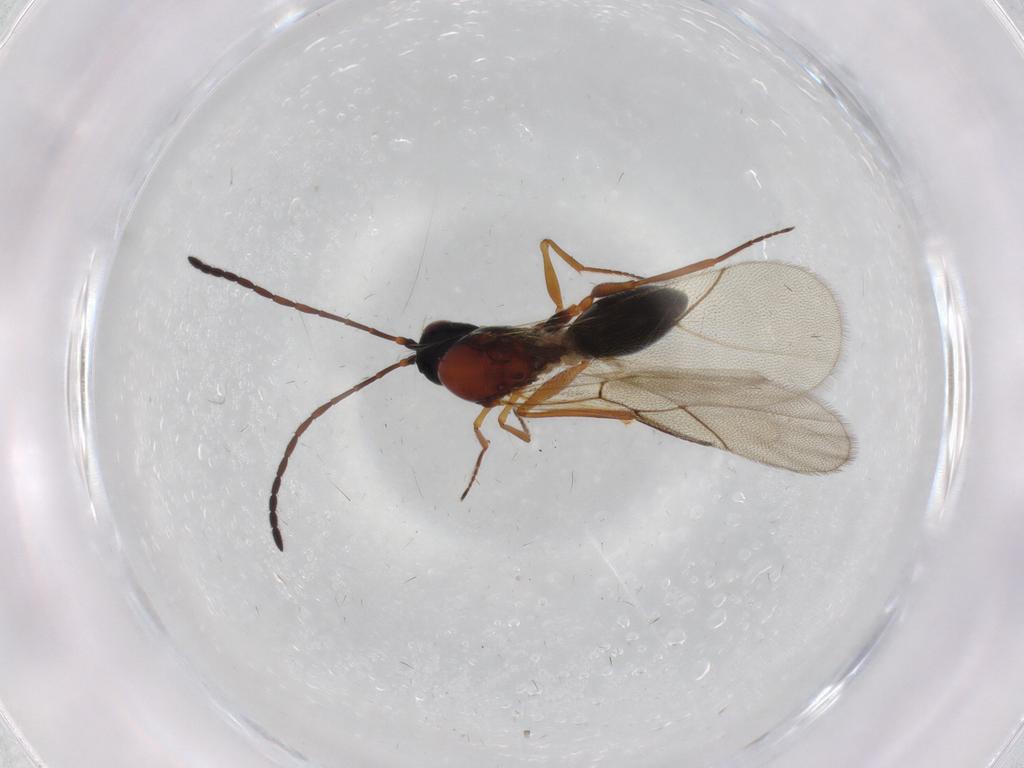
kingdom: Animalia
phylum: Arthropoda
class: Insecta
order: Hymenoptera
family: Figitidae
